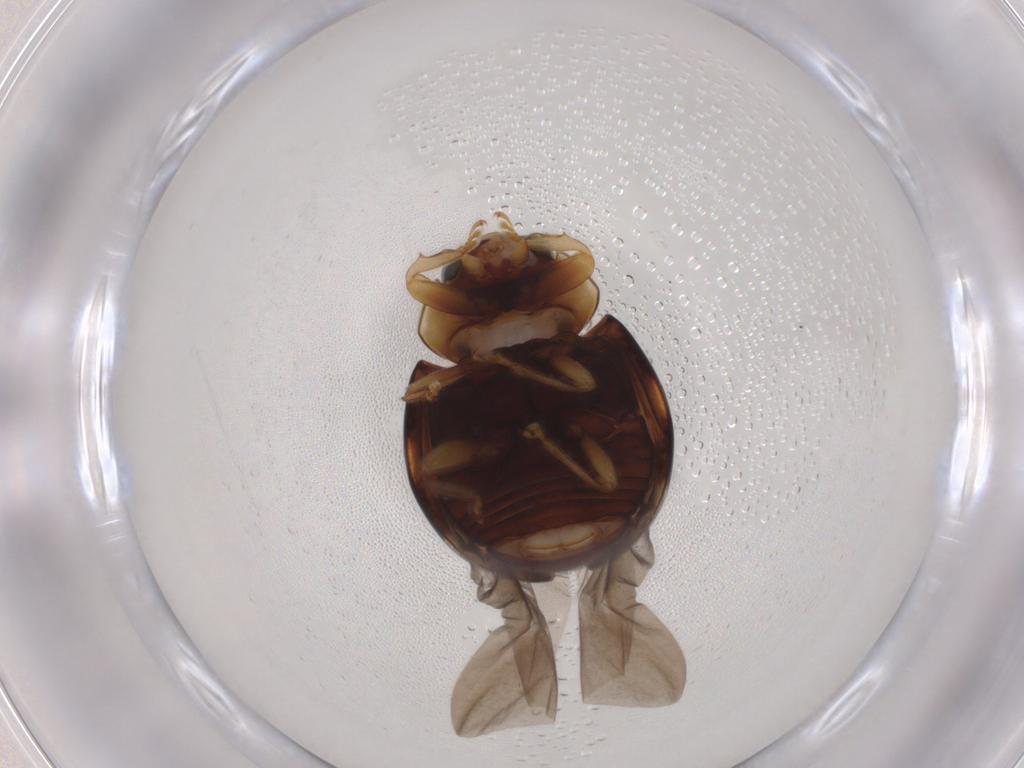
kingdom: Animalia
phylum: Arthropoda
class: Insecta
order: Coleoptera
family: Coccinellidae
